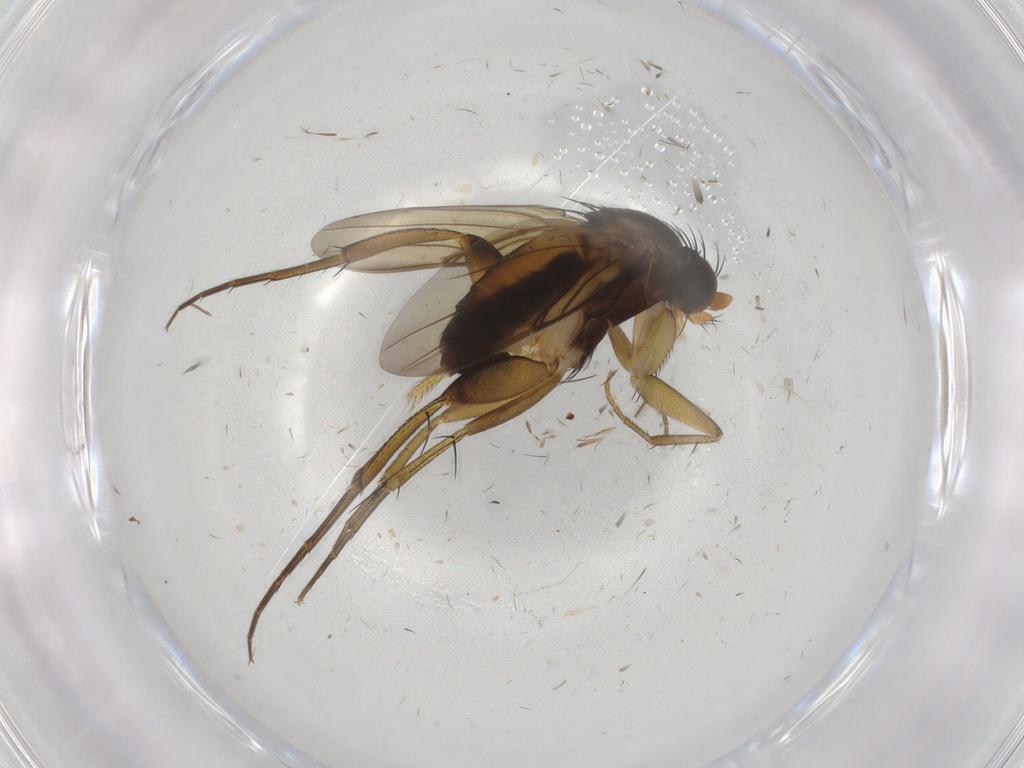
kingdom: Animalia
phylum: Arthropoda
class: Insecta
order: Diptera
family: Phoridae
